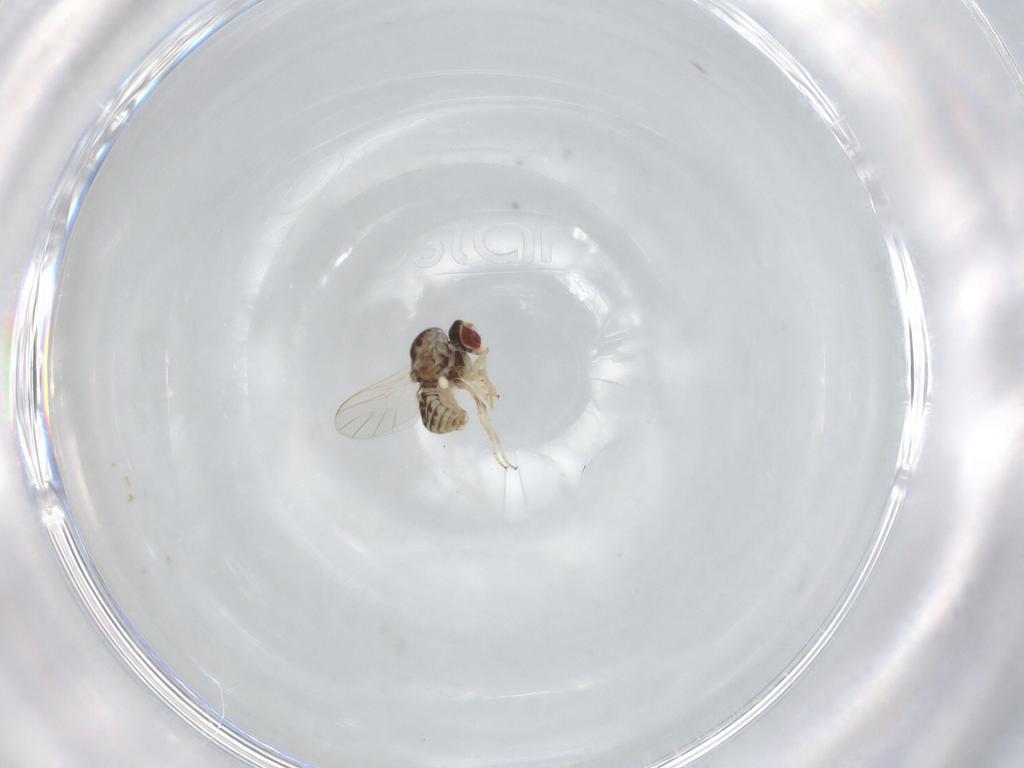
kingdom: Animalia
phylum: Arthropoda
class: Insecta
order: Diptera
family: Bombyliidae
